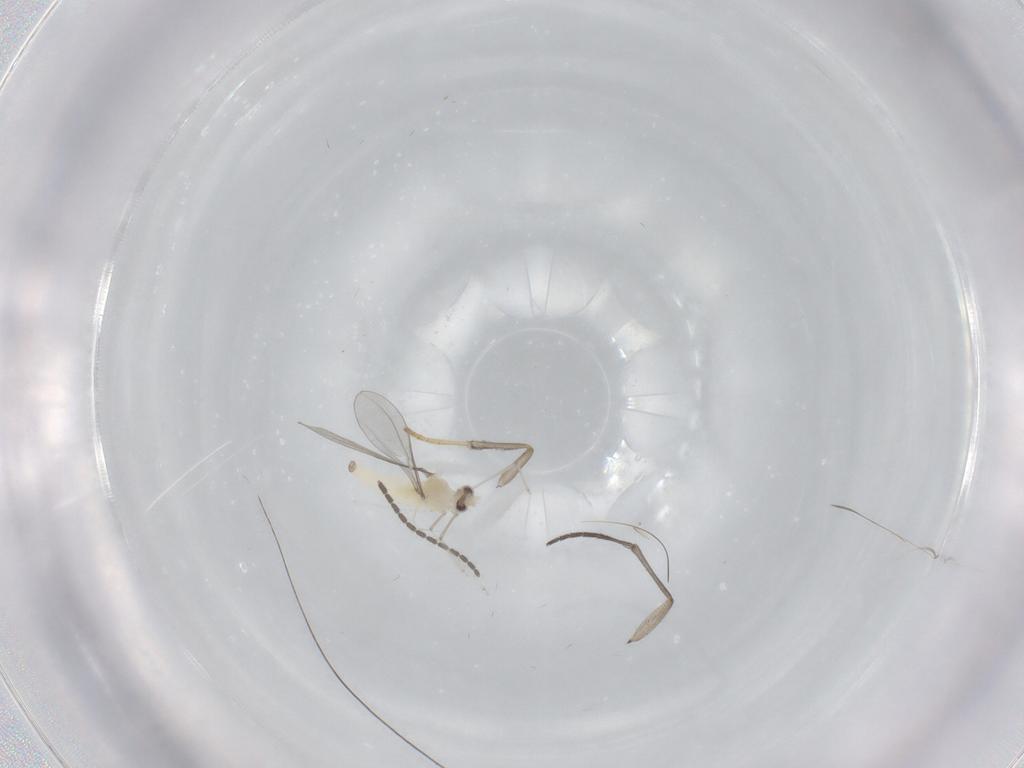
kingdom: Animalia
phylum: Arthropoda
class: Insecta
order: Diptera
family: Cecidomyiidae
